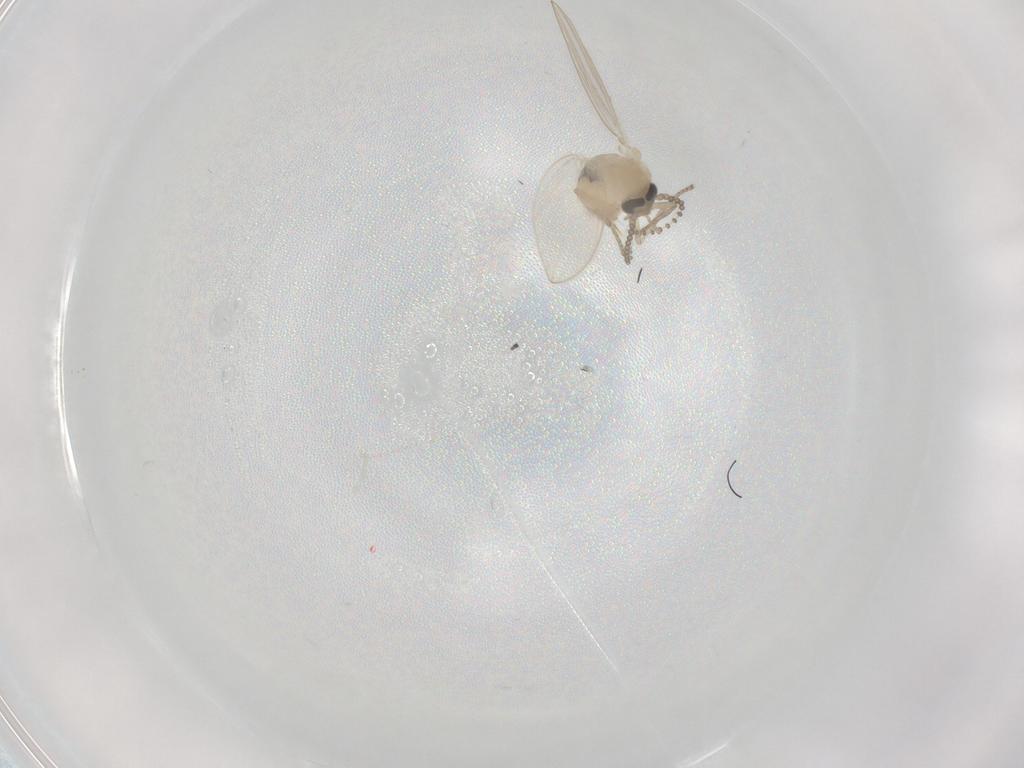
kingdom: Animalia
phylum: Arthropoda
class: Insecta
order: Diptera
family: Psychodidae
